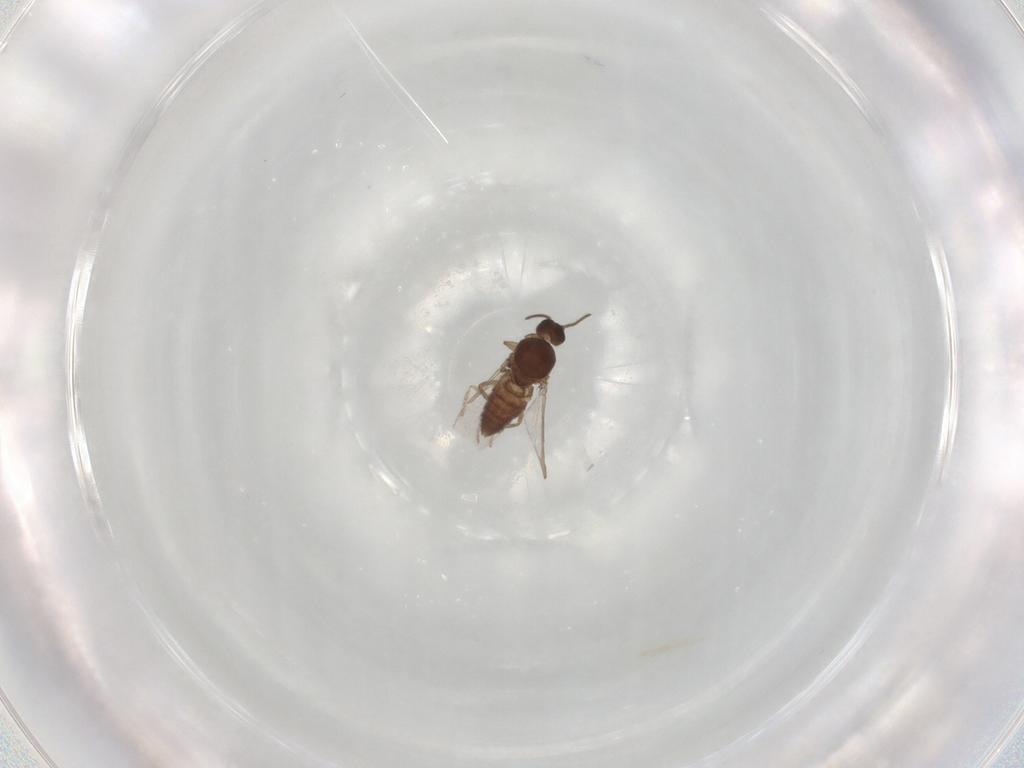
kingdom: Animalia
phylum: Arthropoda
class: Insecta
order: Diptera
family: Ceratopogonidae
